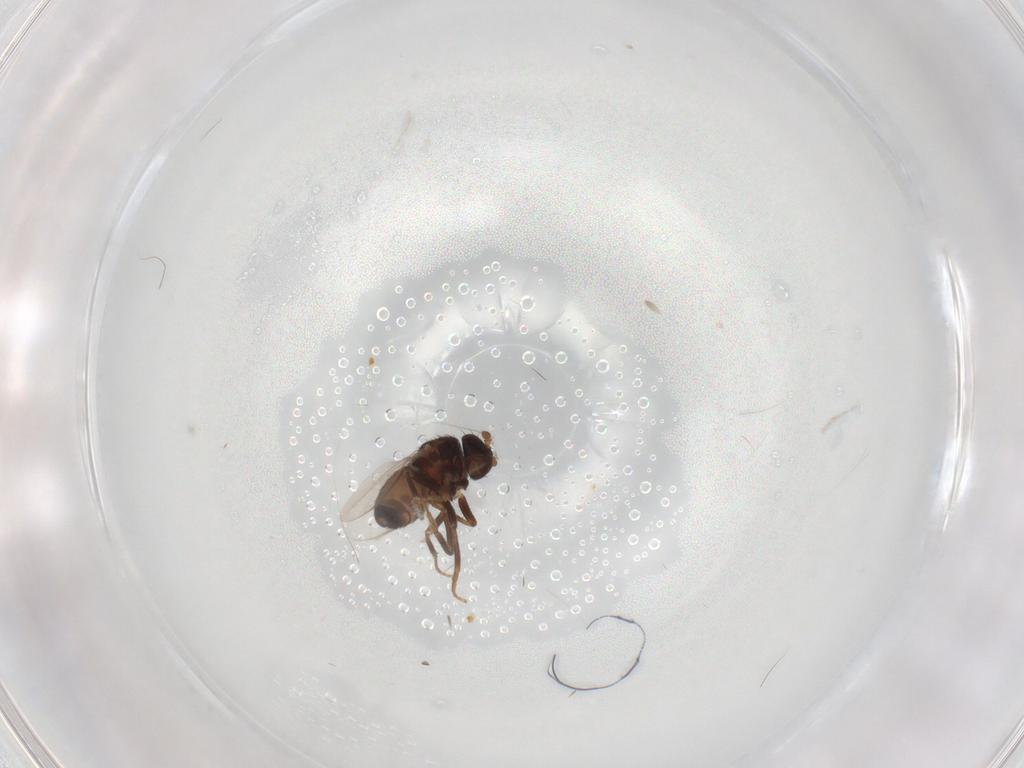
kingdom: Animalia
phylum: Arthropoda
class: Insecta
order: Diptera
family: Sphaeroceridae
